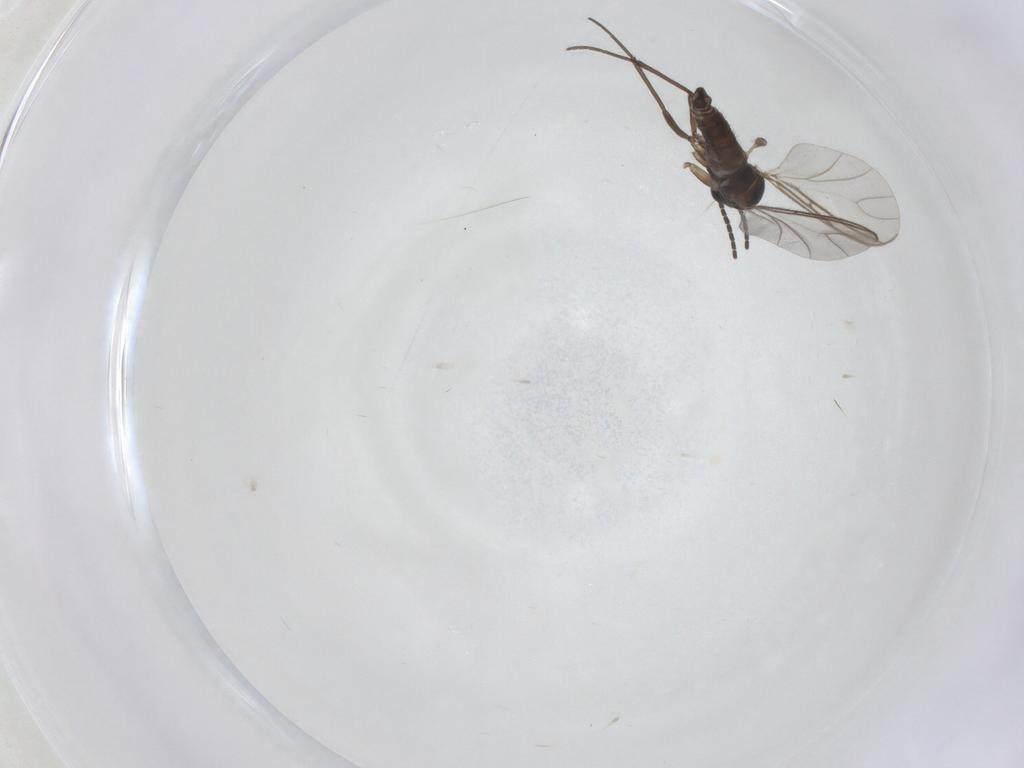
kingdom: Animalia
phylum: Arthropoda
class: Insecta
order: Diptera
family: Sciaridae
